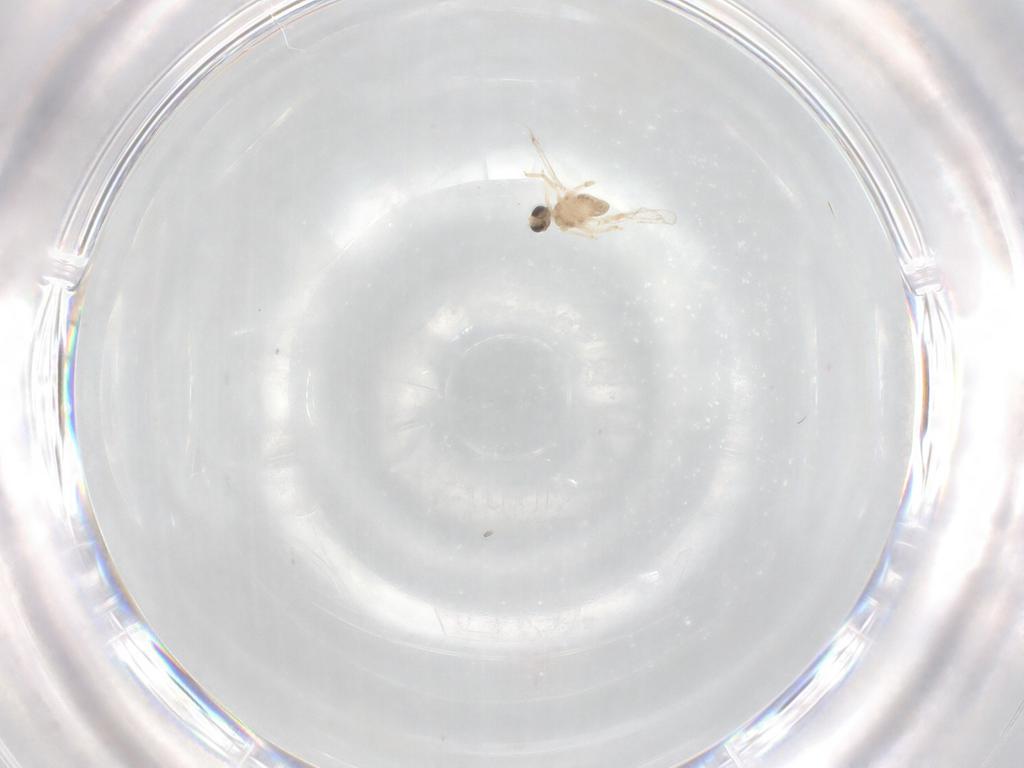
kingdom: Animalia
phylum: Arthropoda
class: Insecta
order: Diptera
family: Cecidomyiidae
